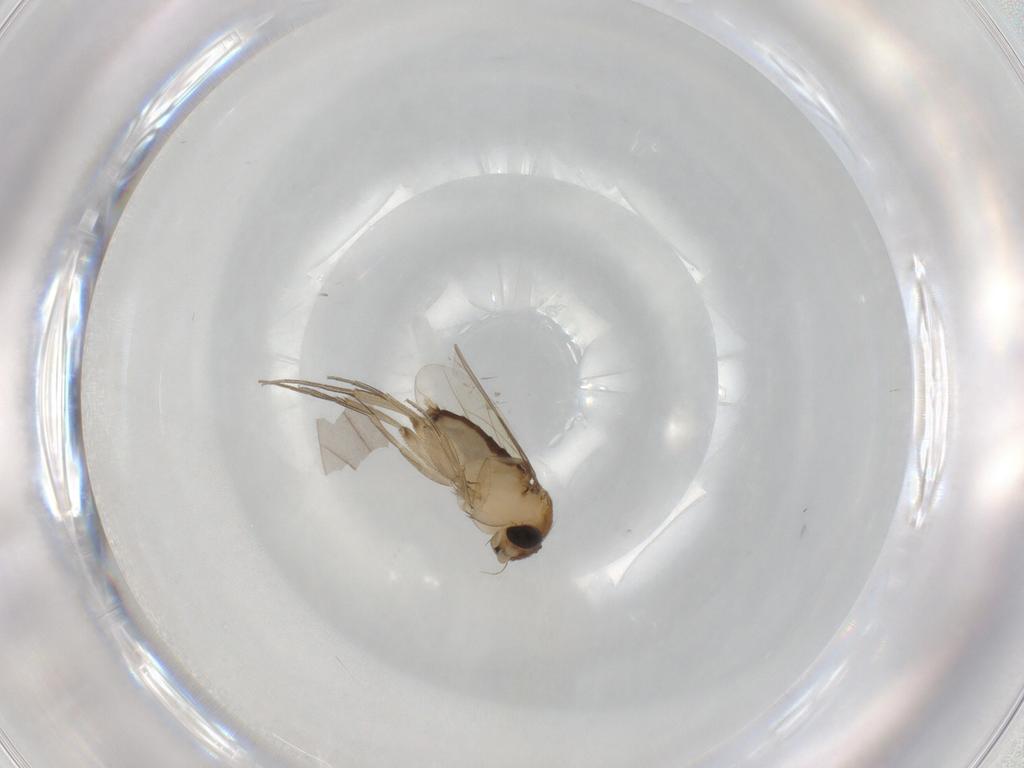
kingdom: Animalia
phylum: Arthropoda
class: Insecta
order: Diptera
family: Phoridae
